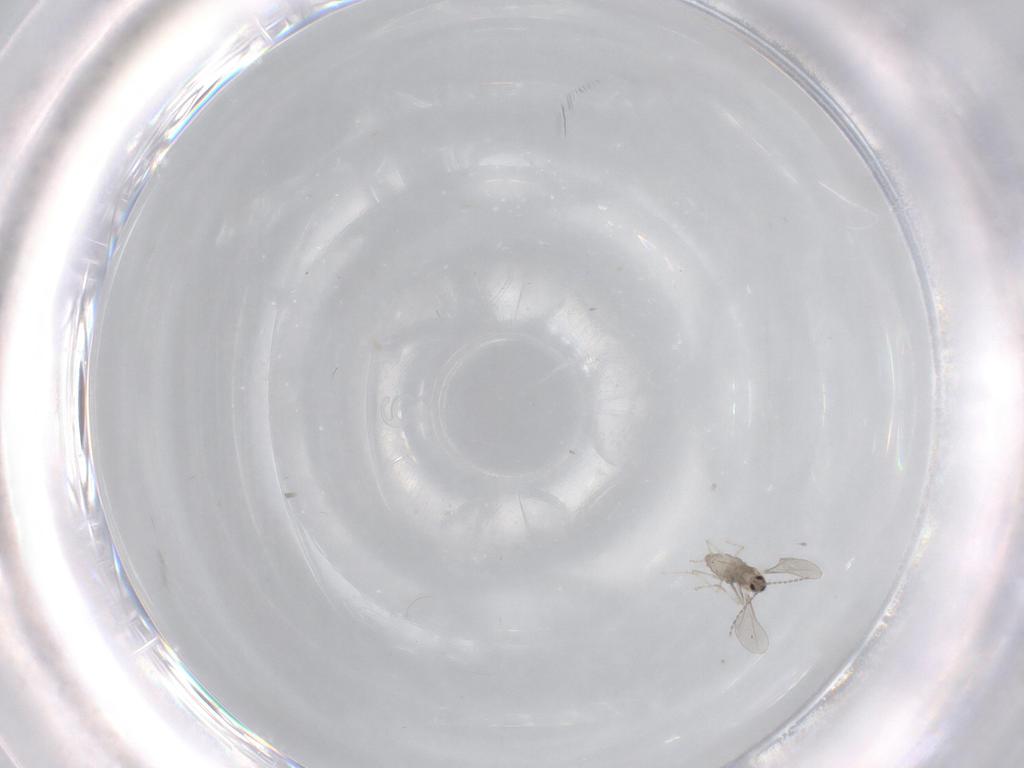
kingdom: Animalia
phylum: Arthropoda
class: Insecta
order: Diptera
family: Cecidomyiidae
